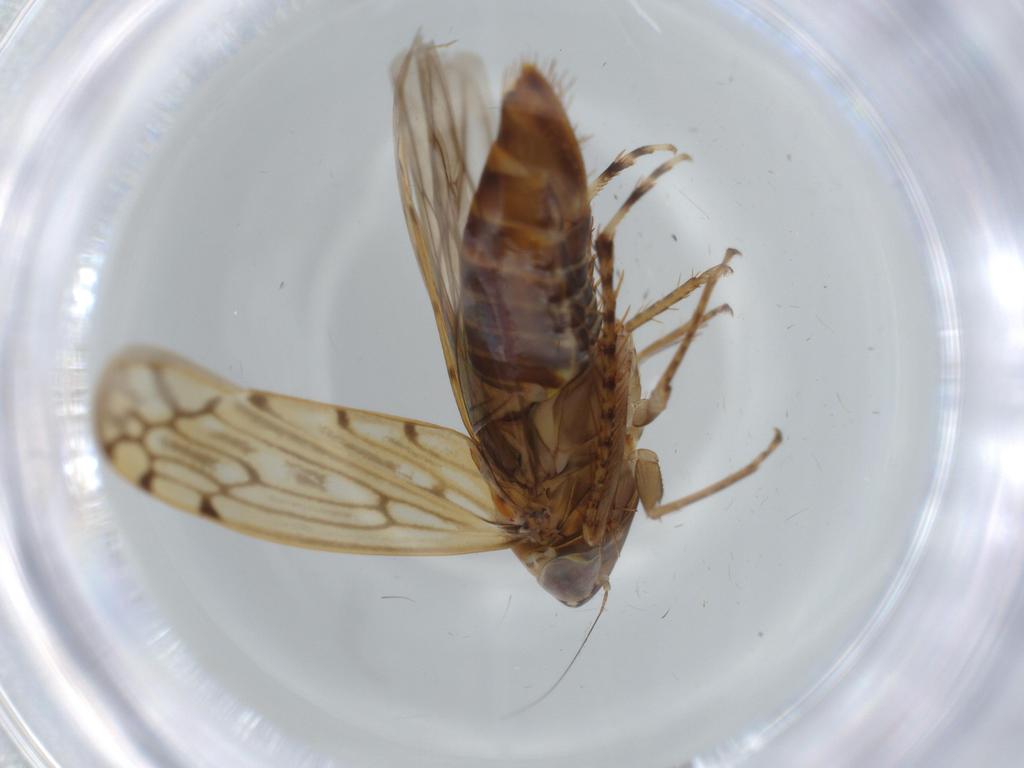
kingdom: Animalia
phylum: Arthropoda
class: Insecta
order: Hemiptera
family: Cicadellidae
